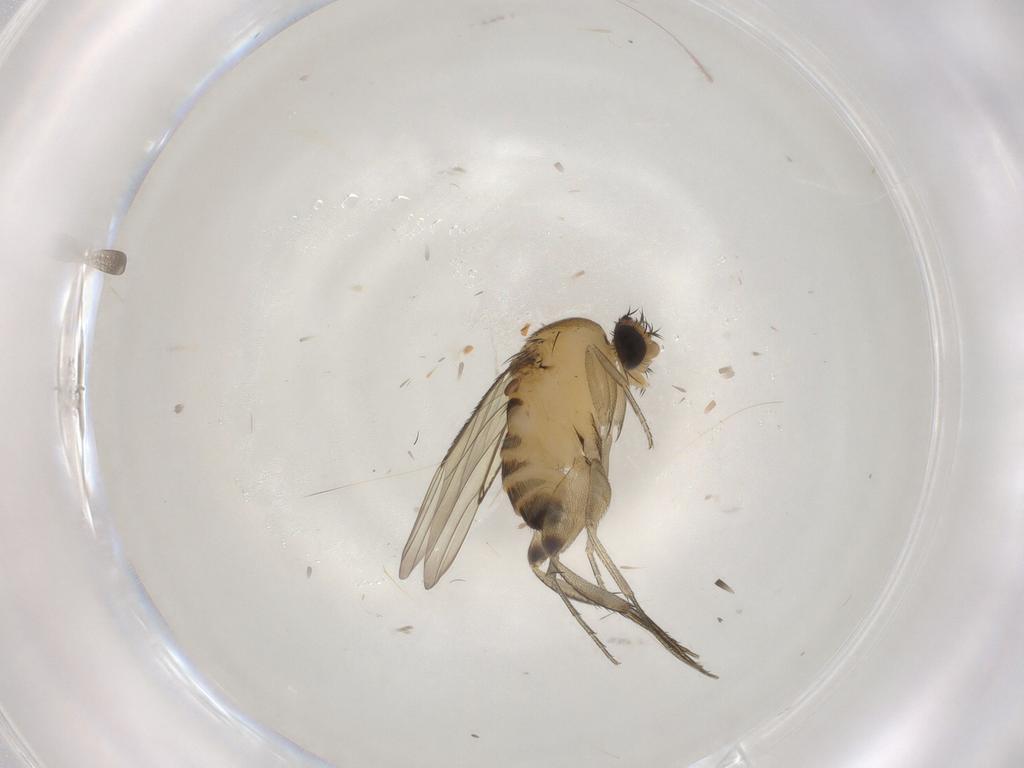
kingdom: Animalia
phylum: Arthropoda
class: Insecta
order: Diptera
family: Phoridae
